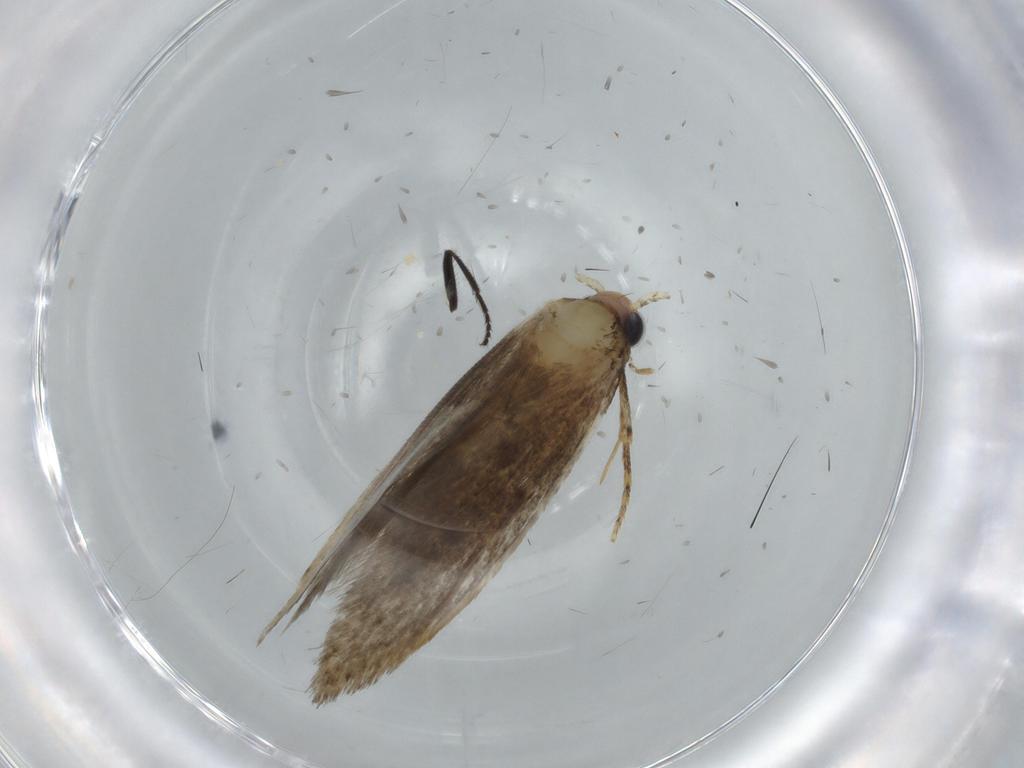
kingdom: Animalia
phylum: Arthropoda
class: Insecta
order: Lepidoptera
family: Tineidae
